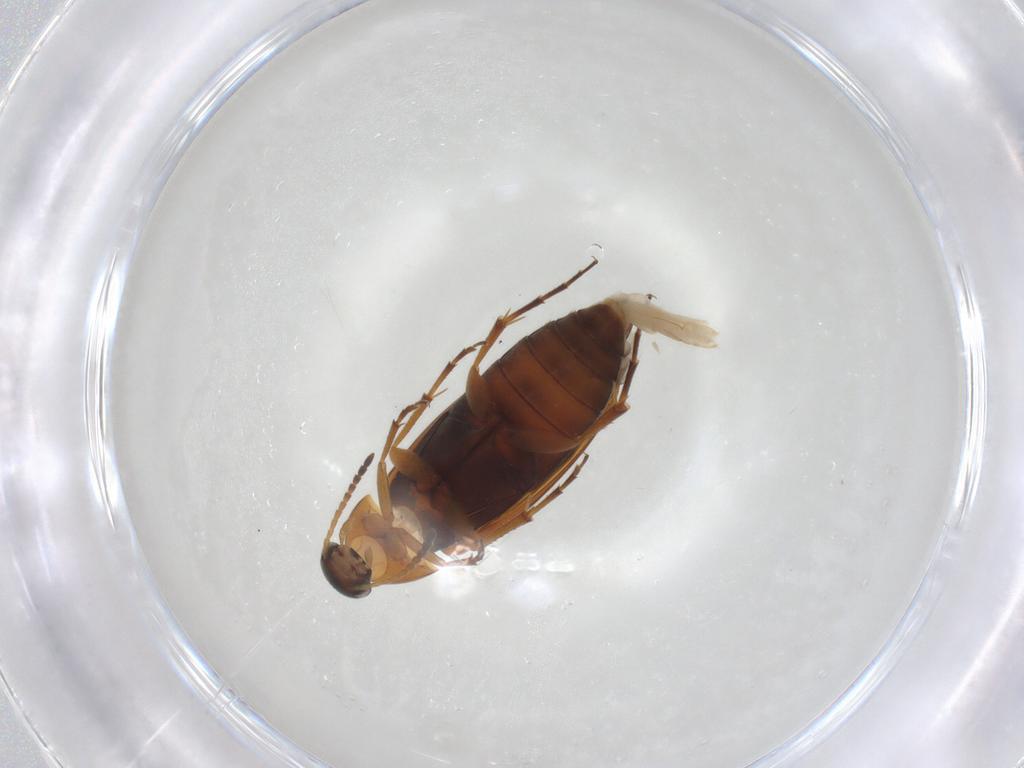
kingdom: Animalia
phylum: Arthropoda
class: Insecta
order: Coleoptera
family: Scraptiidae
